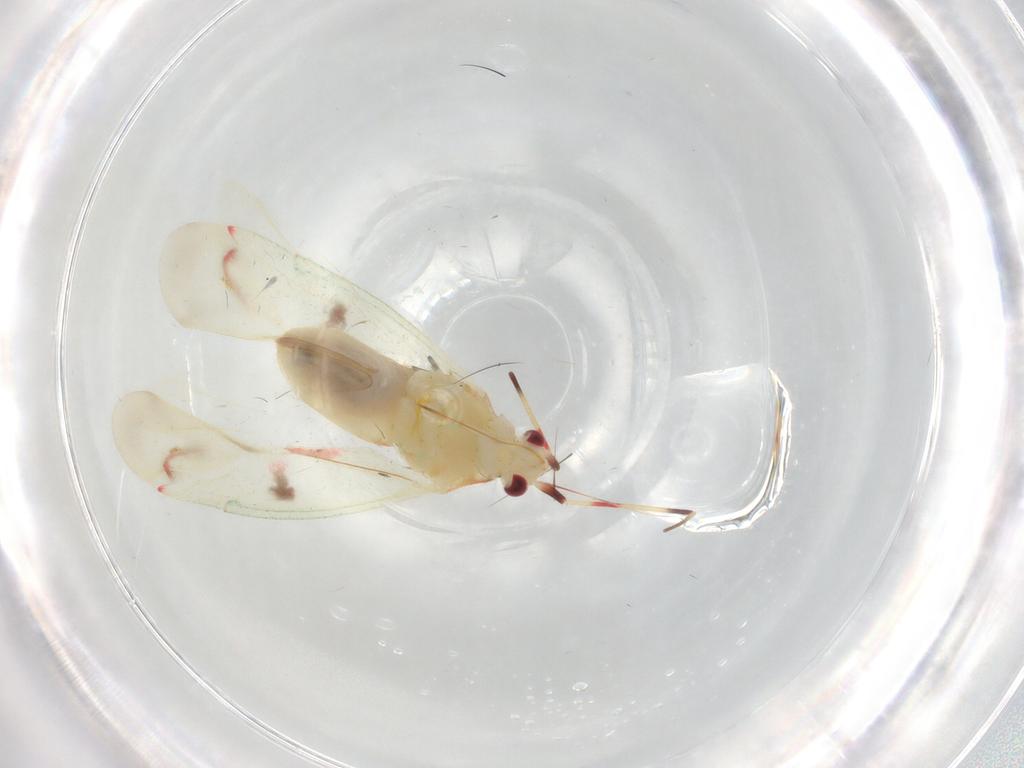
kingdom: Animalia
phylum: Arthropoda
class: Insecta
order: Hemiptera
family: Miridae
